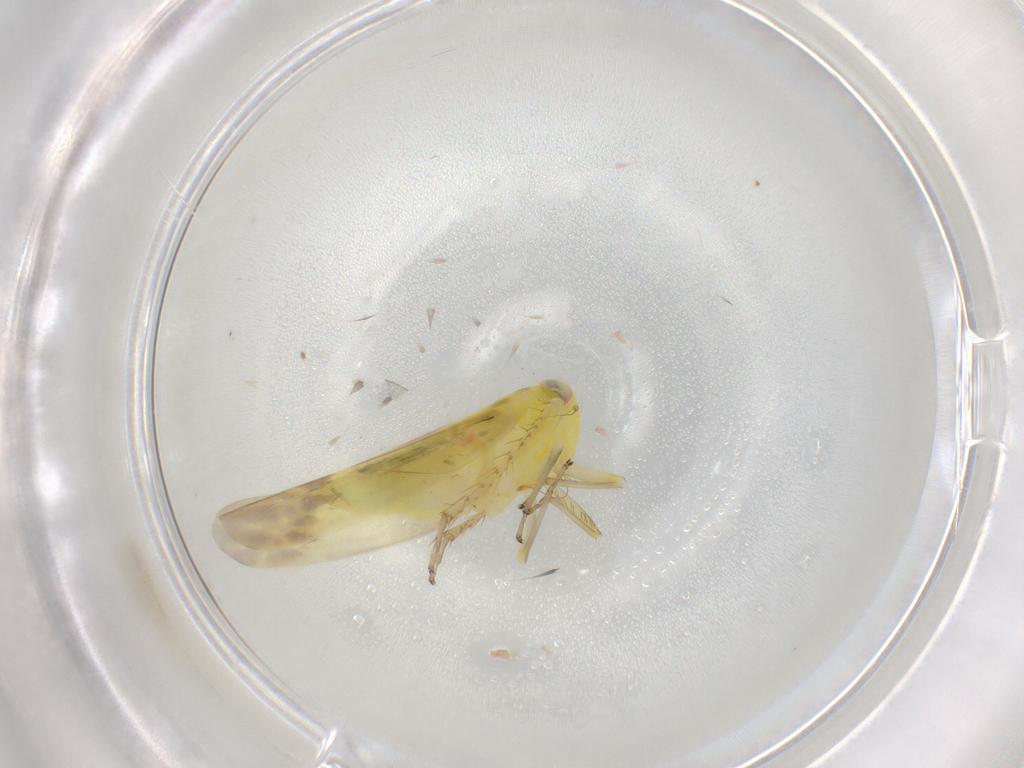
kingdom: Animalia
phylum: Arthropoda
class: Insecta
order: Hemiptera
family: Cicadellidae
